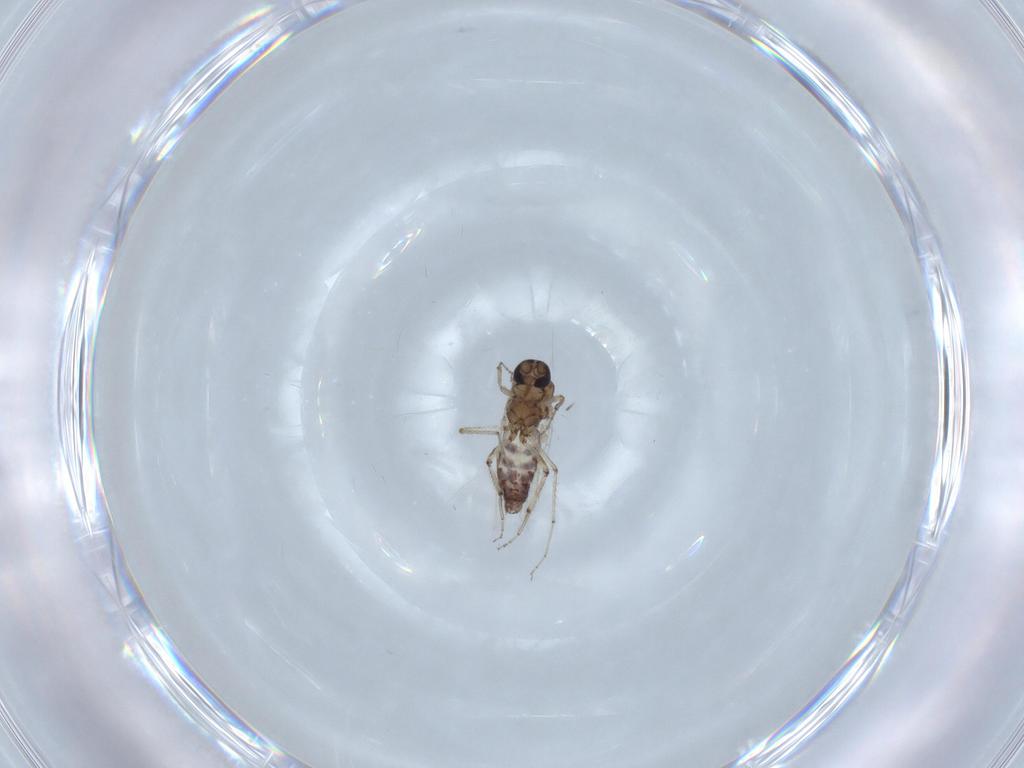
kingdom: Animalia
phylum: Arthropoda
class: Insecta
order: Diptera
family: Ceratopogonidae
